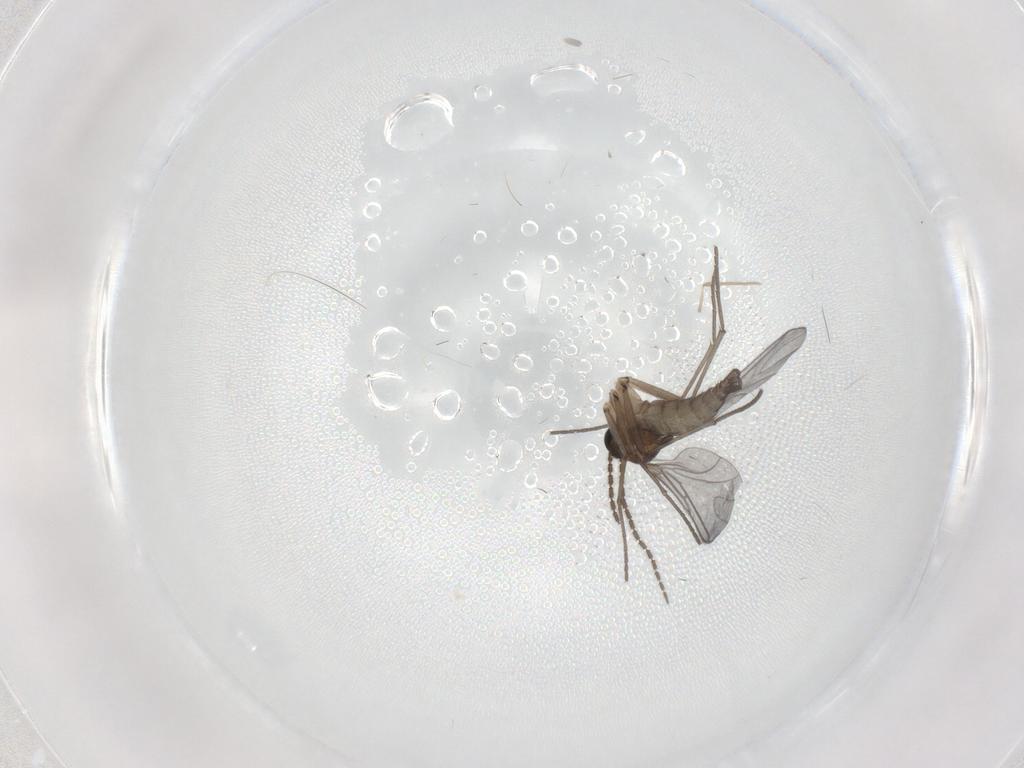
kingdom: Animalia
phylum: Arthropoda
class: Insecta
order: Diptera
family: Chironomidae
